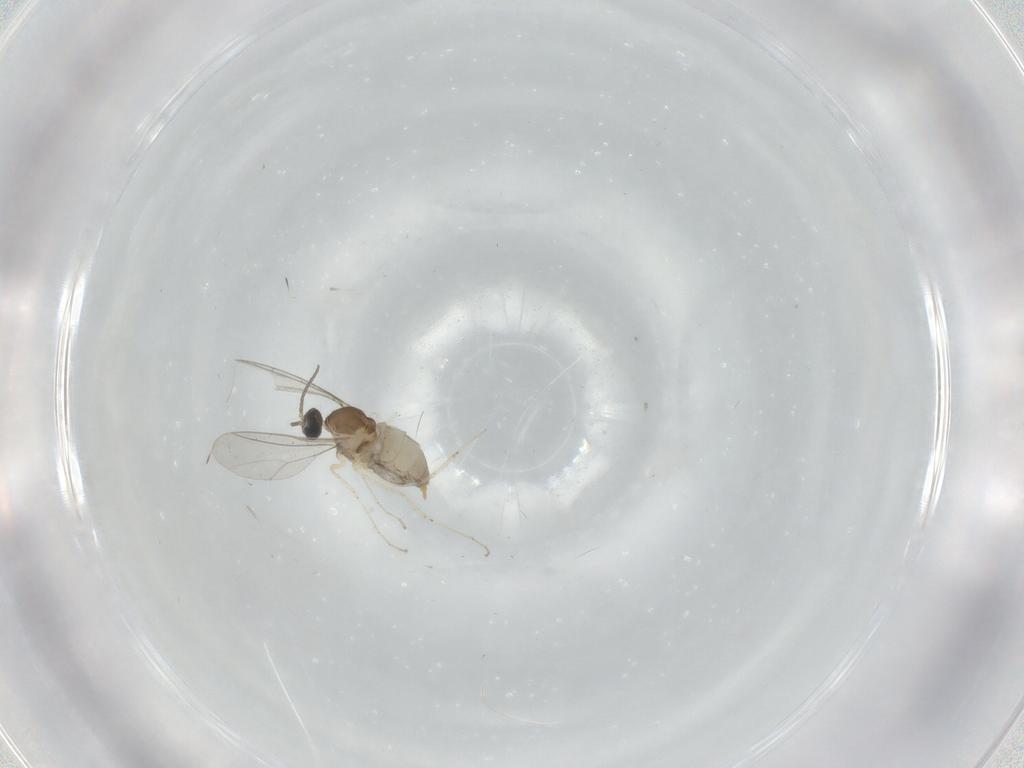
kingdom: Animalia
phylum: Arthropoda
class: Insecta
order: Diptera
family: Cecidomyiidae
